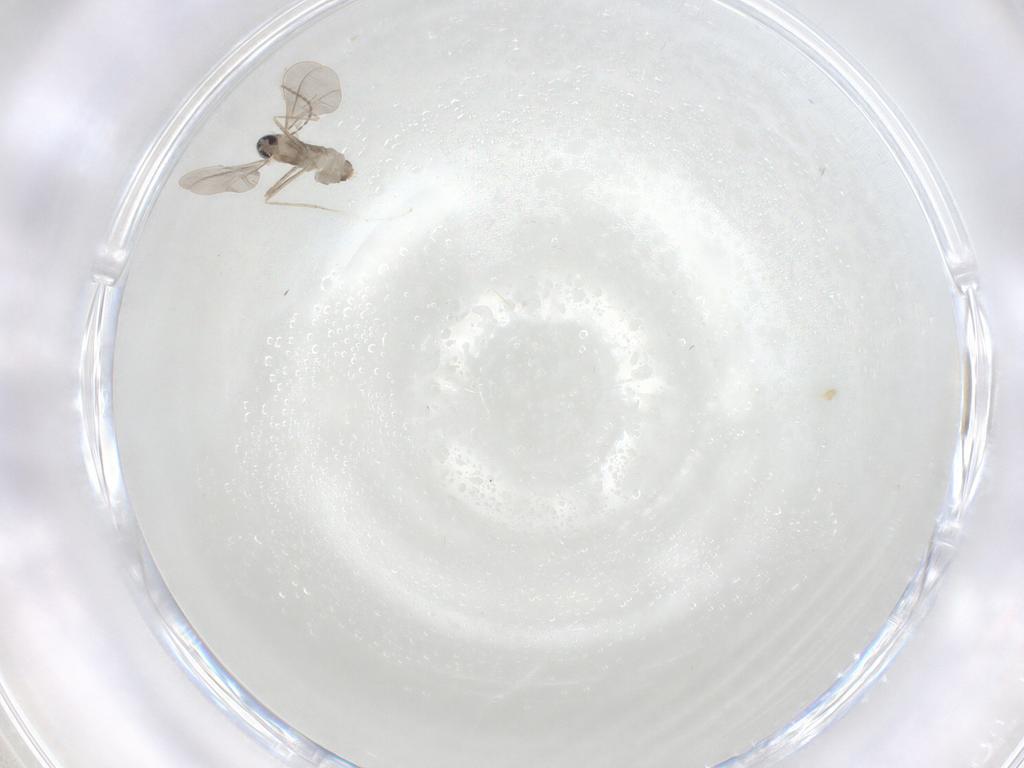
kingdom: Animalia
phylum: Arthropoda
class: Insecta
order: Diptera
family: Cecidomyiidae
